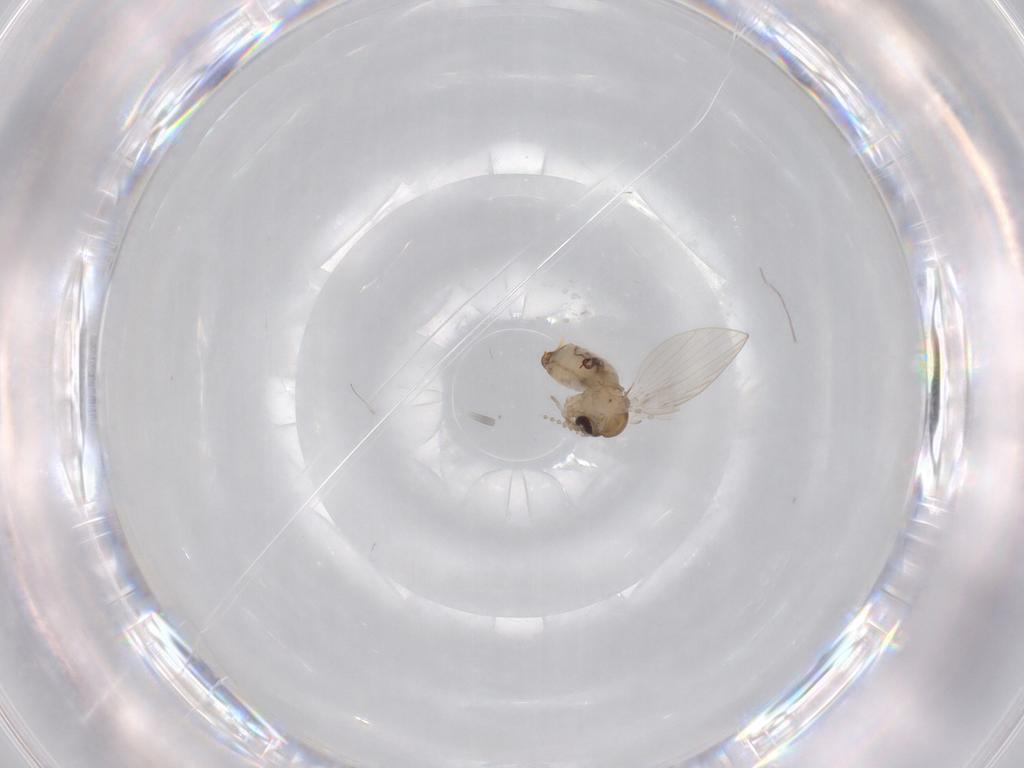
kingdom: Animalia
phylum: Arthropoda
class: Insecta
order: Diptera
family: Psychodidae
